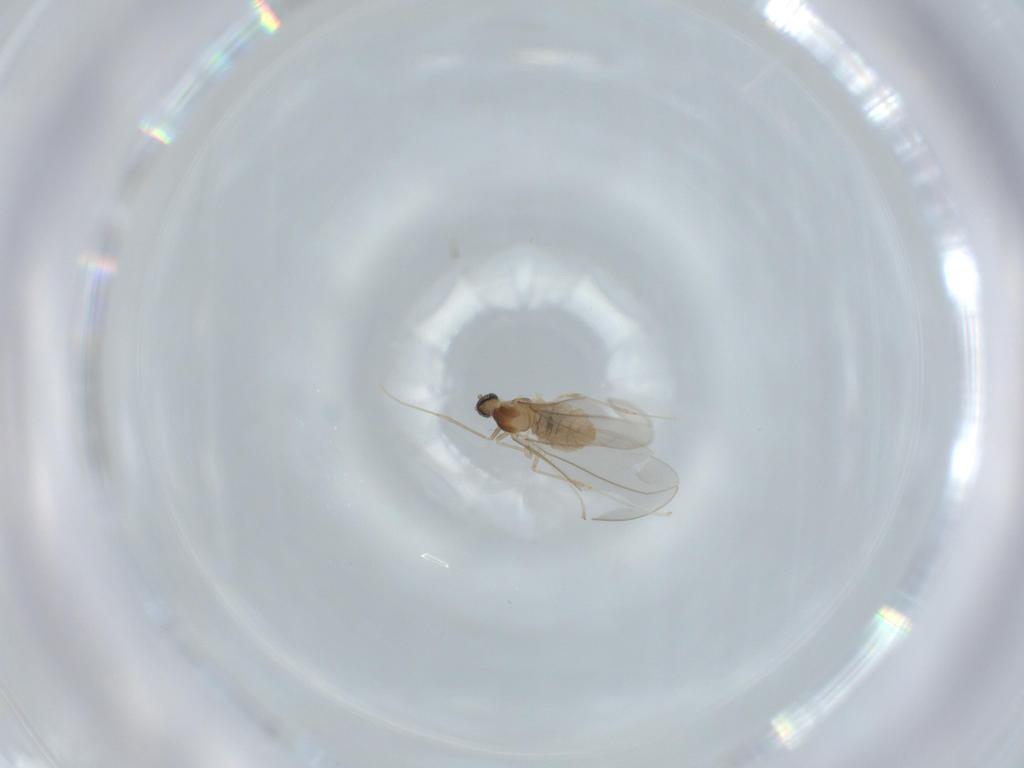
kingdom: Animalia
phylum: Arthropoda
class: Insecta
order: Diptera
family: Cecidomyiidae
